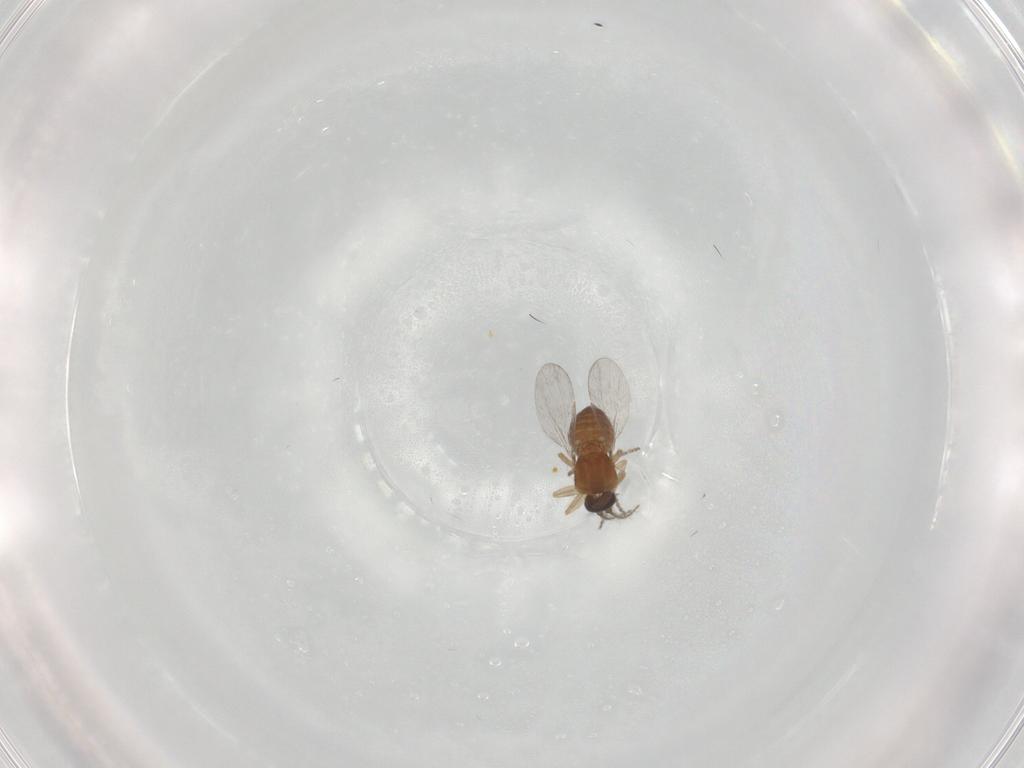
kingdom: Animalia
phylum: Arthropoda
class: Insecta
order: Diptera
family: Ceratopogonidae
